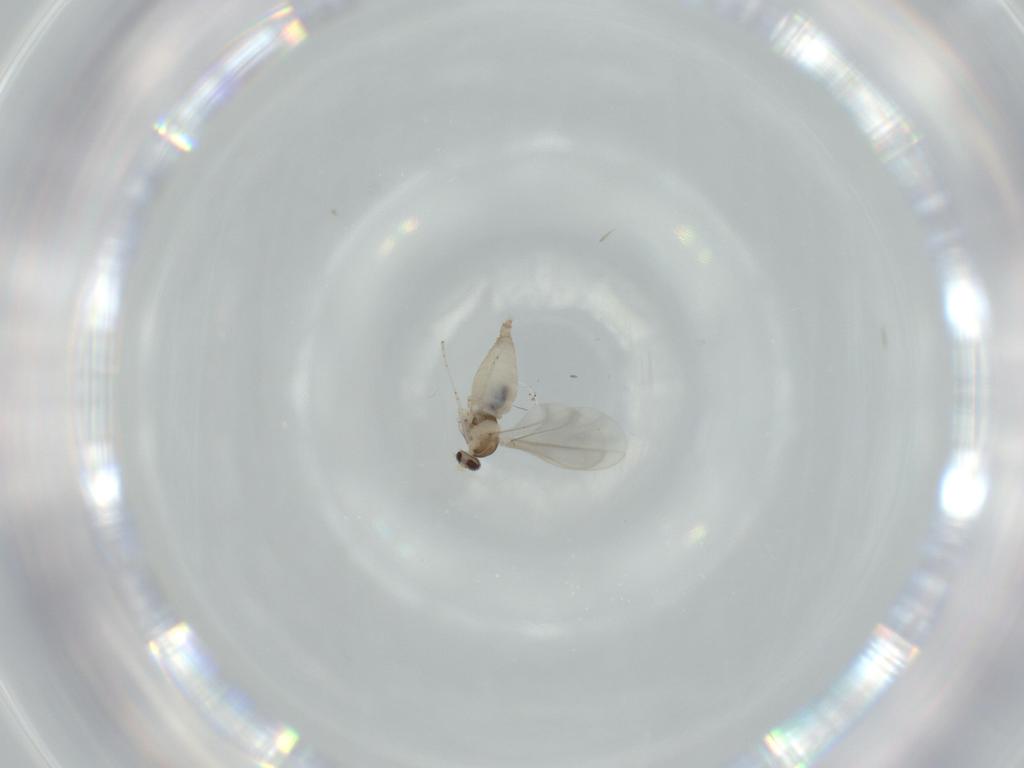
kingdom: Animalia
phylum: Arthropoda
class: Insecta
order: Diptera
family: Cecidomyiidae
